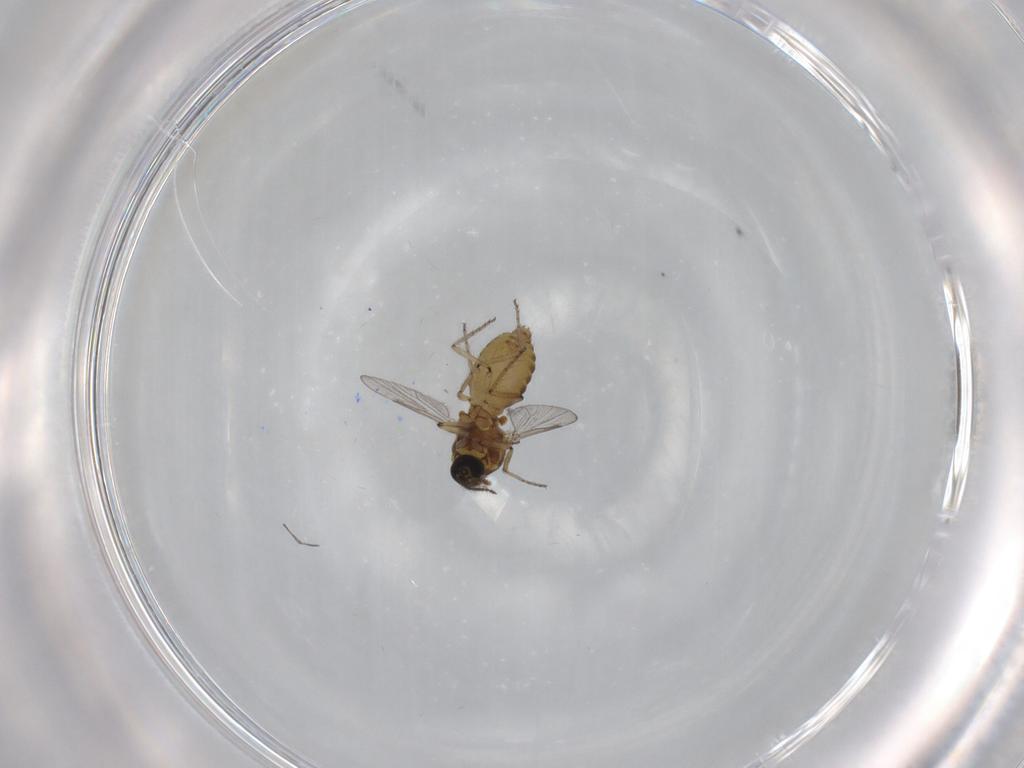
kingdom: Animalia
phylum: Arthropoda
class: Insecta
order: Diptera
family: Ceratopogonidae
